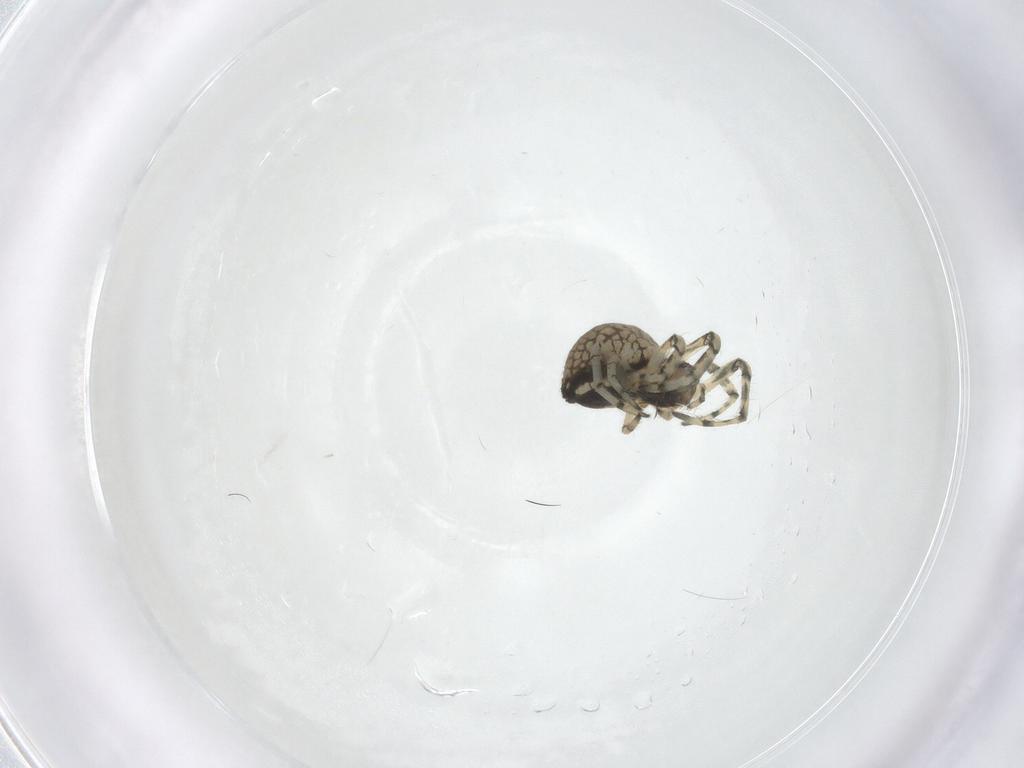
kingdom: Animalia
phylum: Arthropoda
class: Arachnida
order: Araneae
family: Tetragnathidae
